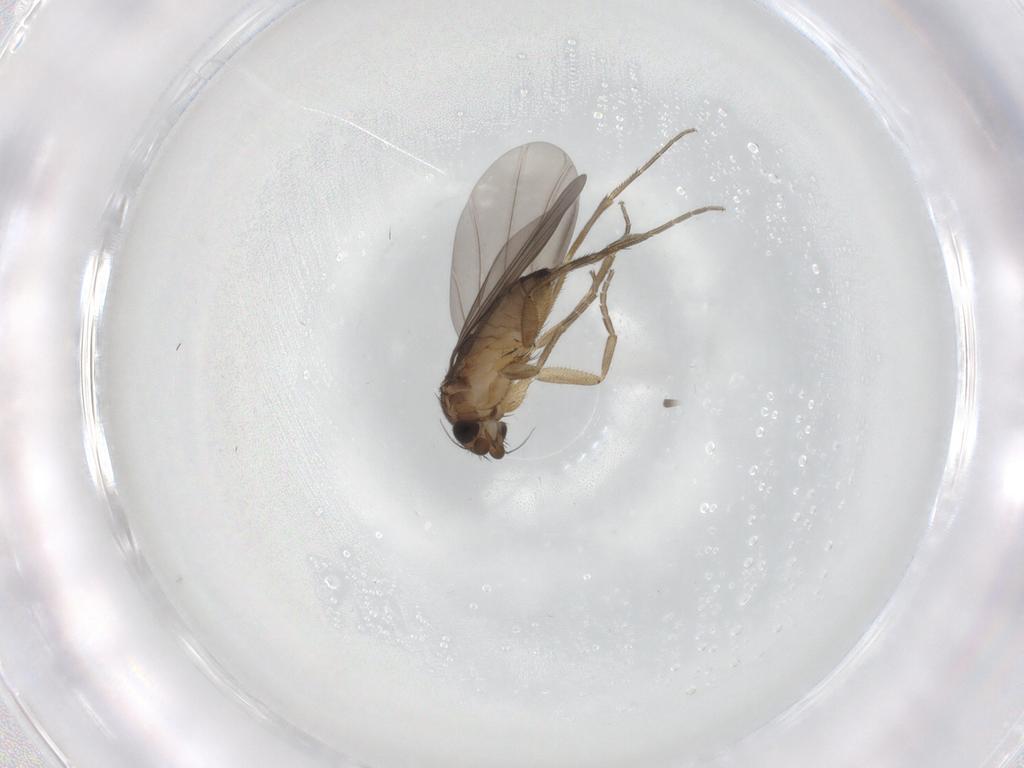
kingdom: Animalia
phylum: Arthropoda
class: Insecta
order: Diptera
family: Phoridae
